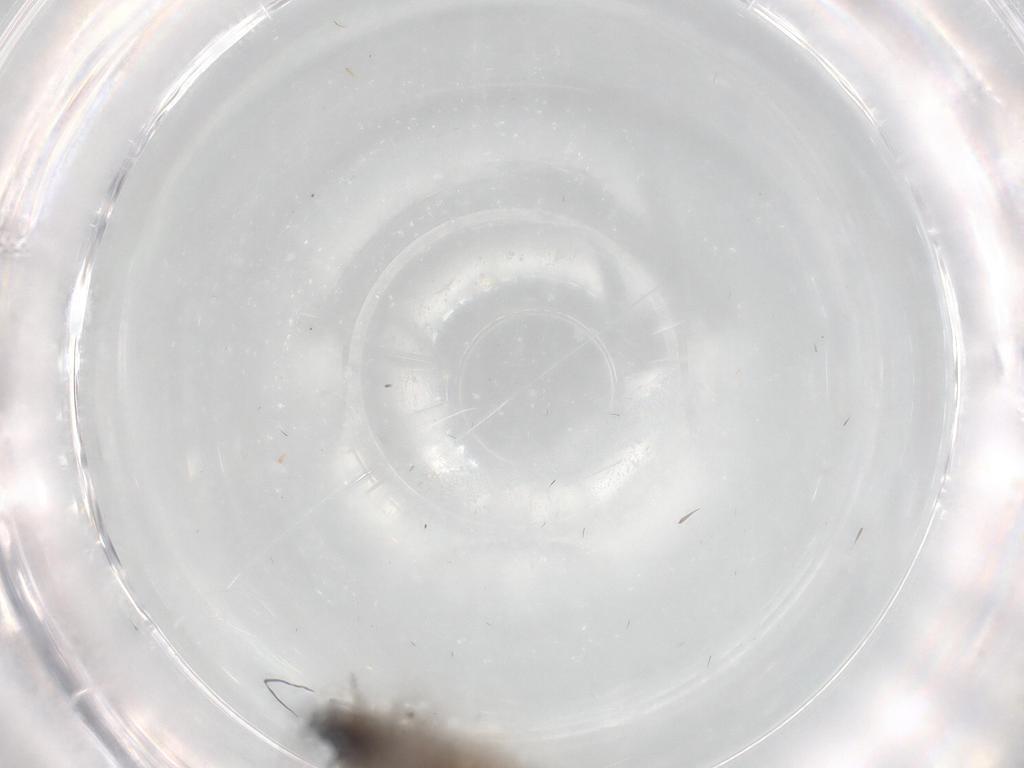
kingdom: Animalia
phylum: Arthropoda
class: Insecta
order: Diptera
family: Cecidomyiidae
